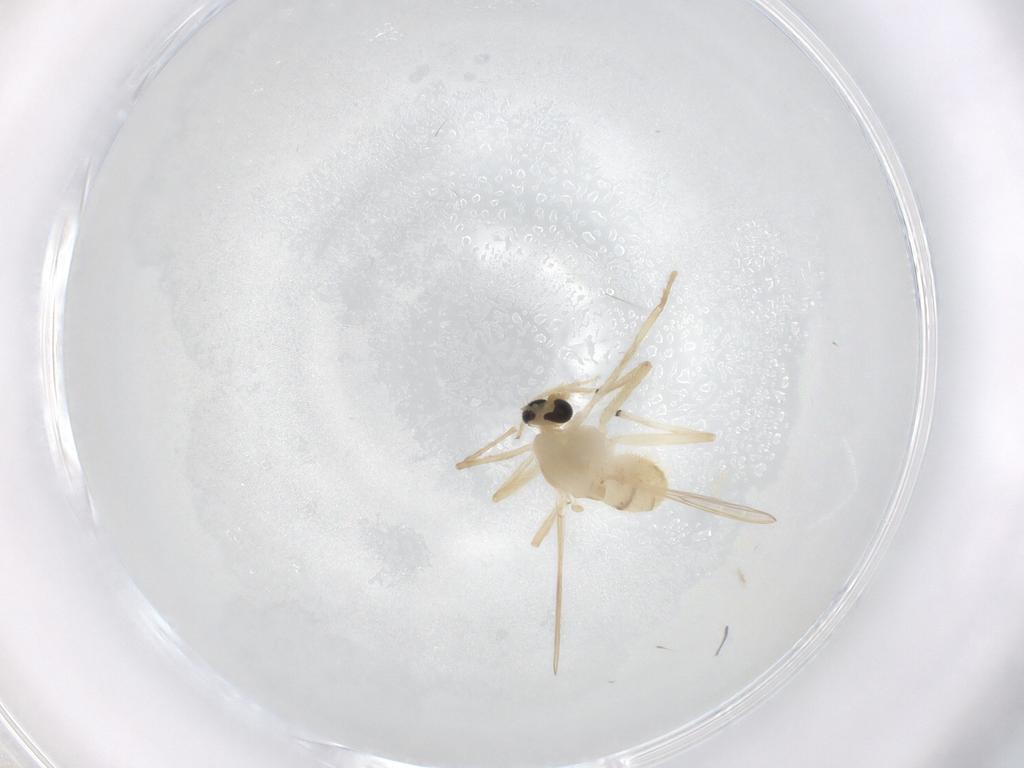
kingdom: Animalia
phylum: Arthropoda
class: Insecta
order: Diptera
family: Chironomidae
